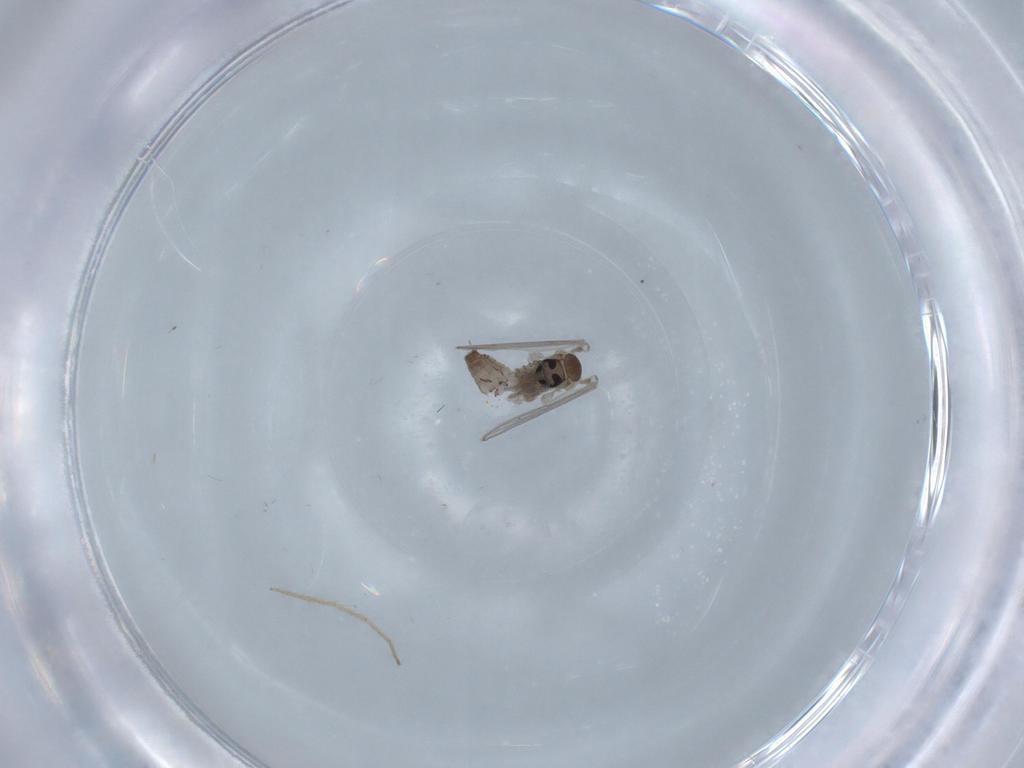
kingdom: Animalia
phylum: Arthropoda
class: Insecta
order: Diptera
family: Psychodidae
